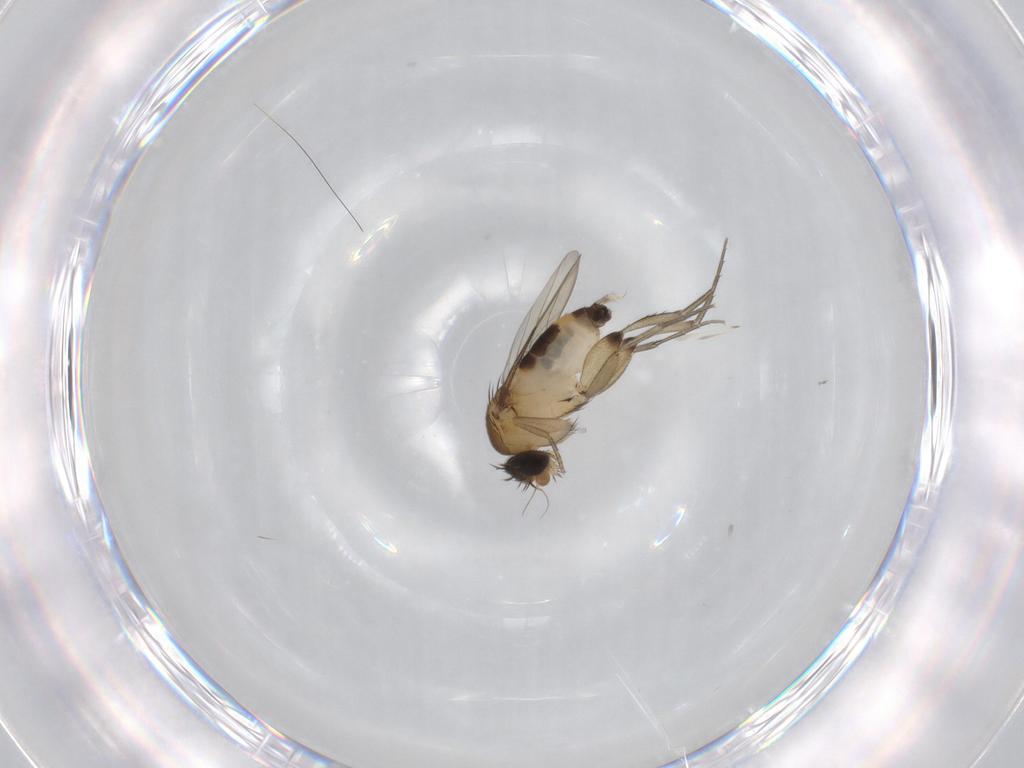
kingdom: Animalia
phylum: Arthropoda
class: Insecta
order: Diptera
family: Phoridae
